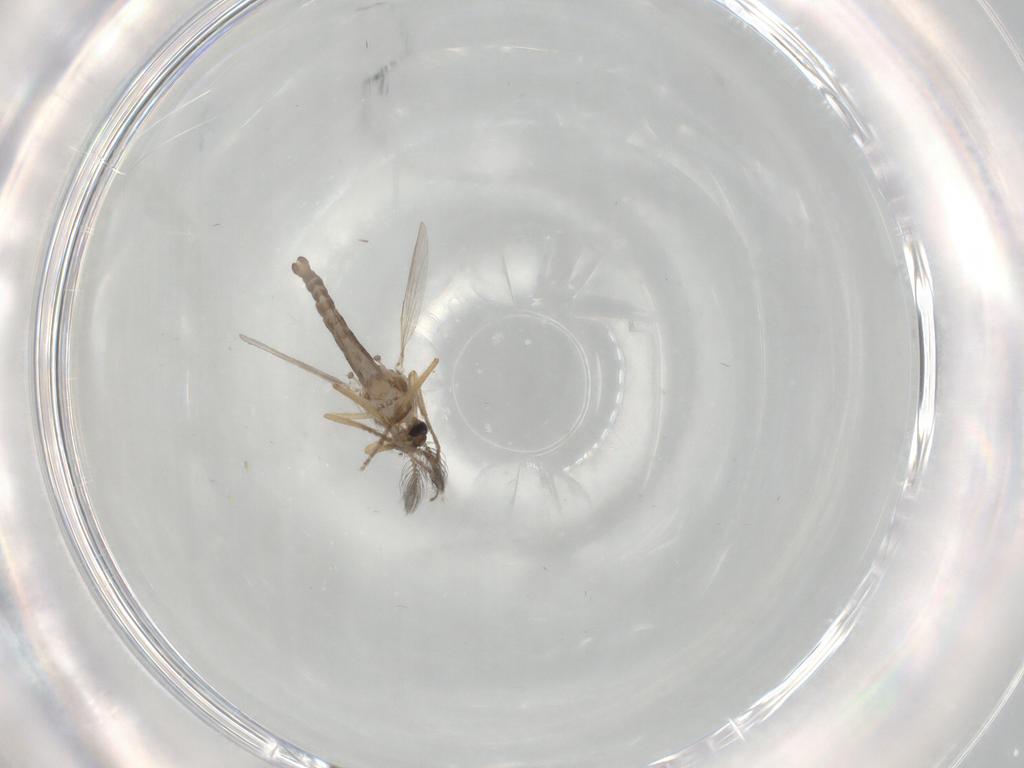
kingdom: Animalia
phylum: Arthropoda
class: Insecta
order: Diptera
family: Ceratopogonidae
